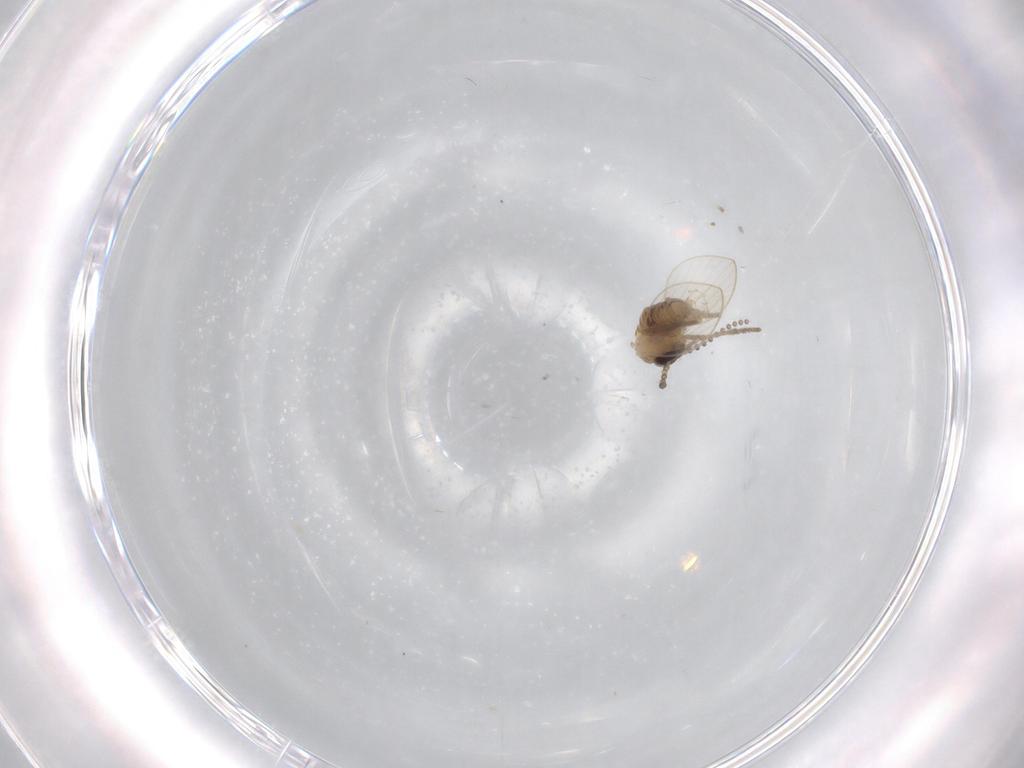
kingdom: Animalia
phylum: Arthropoda
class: Insecta
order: Diptera
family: Psychodidae
